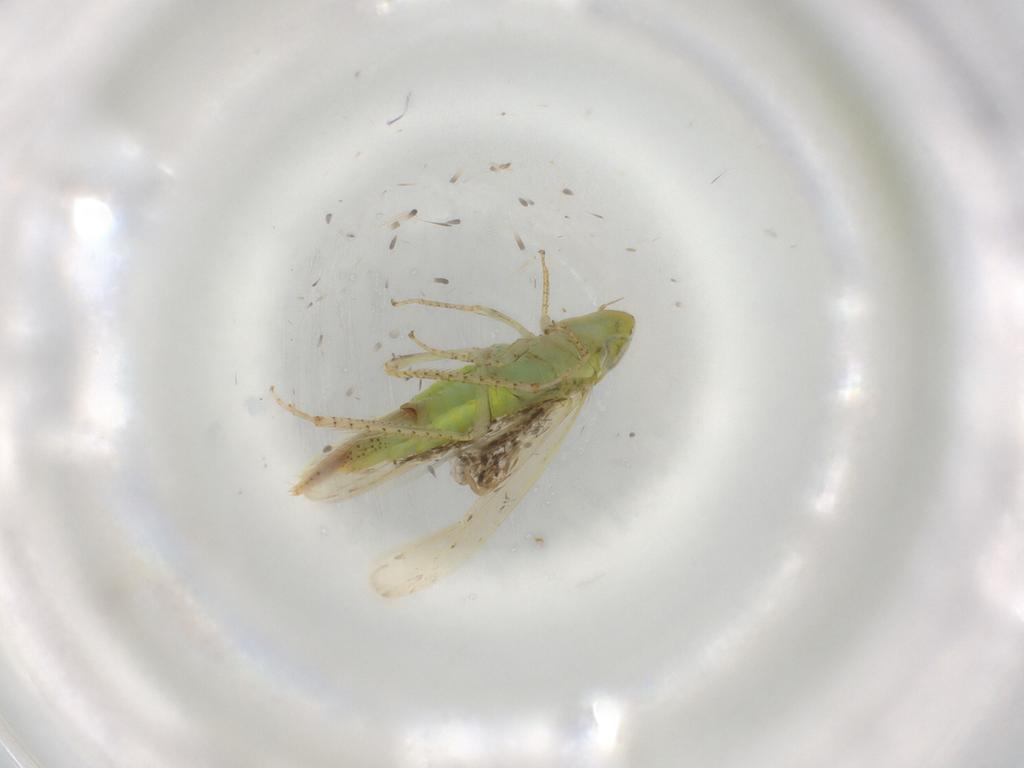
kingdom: Animalia
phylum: Arthropoda
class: Insecta
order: Hemiptera
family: Cicadellidae
